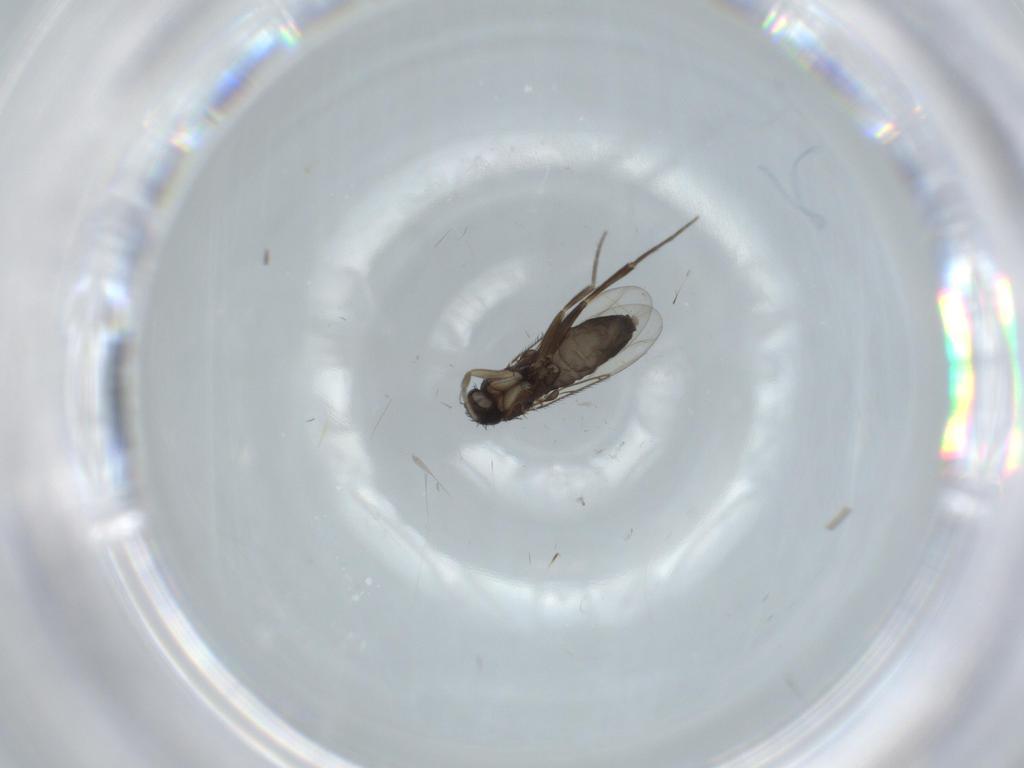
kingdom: Animalia
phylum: Arthropoda
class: Insecta
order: Diptera
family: Phoridae
